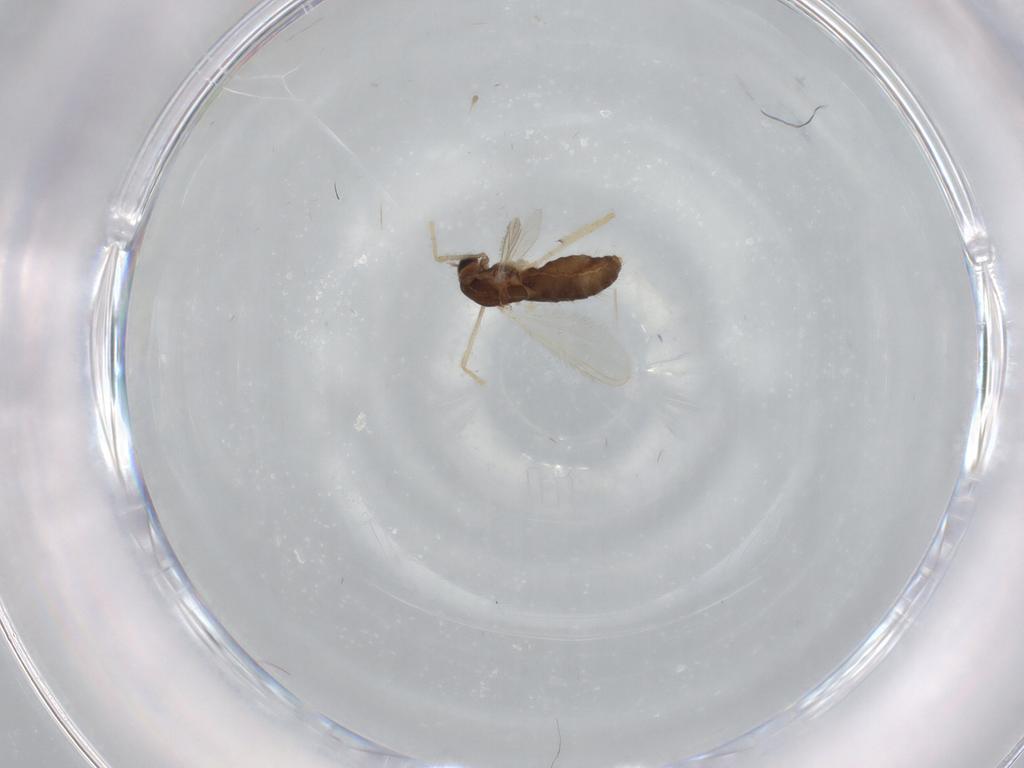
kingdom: Animalia
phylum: Arthropoda
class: Insecta
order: Diptera
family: Chironomidae
